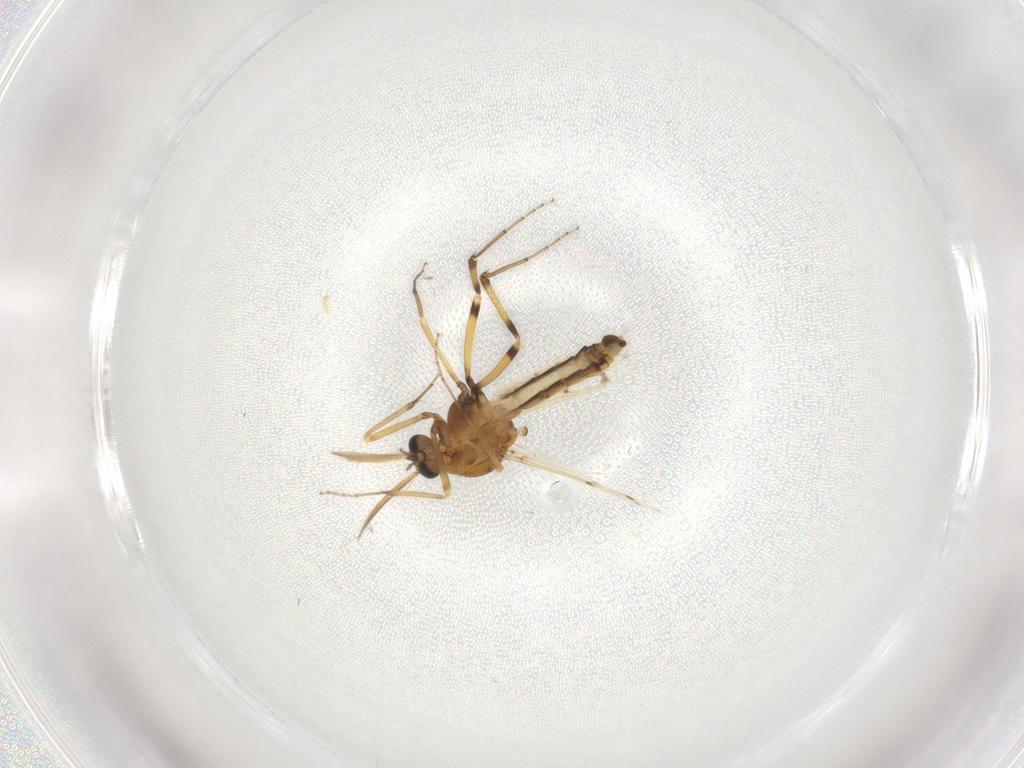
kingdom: Animalia
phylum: Arthropoda
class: Insecta
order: Diptera
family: Ceratopogonidae
